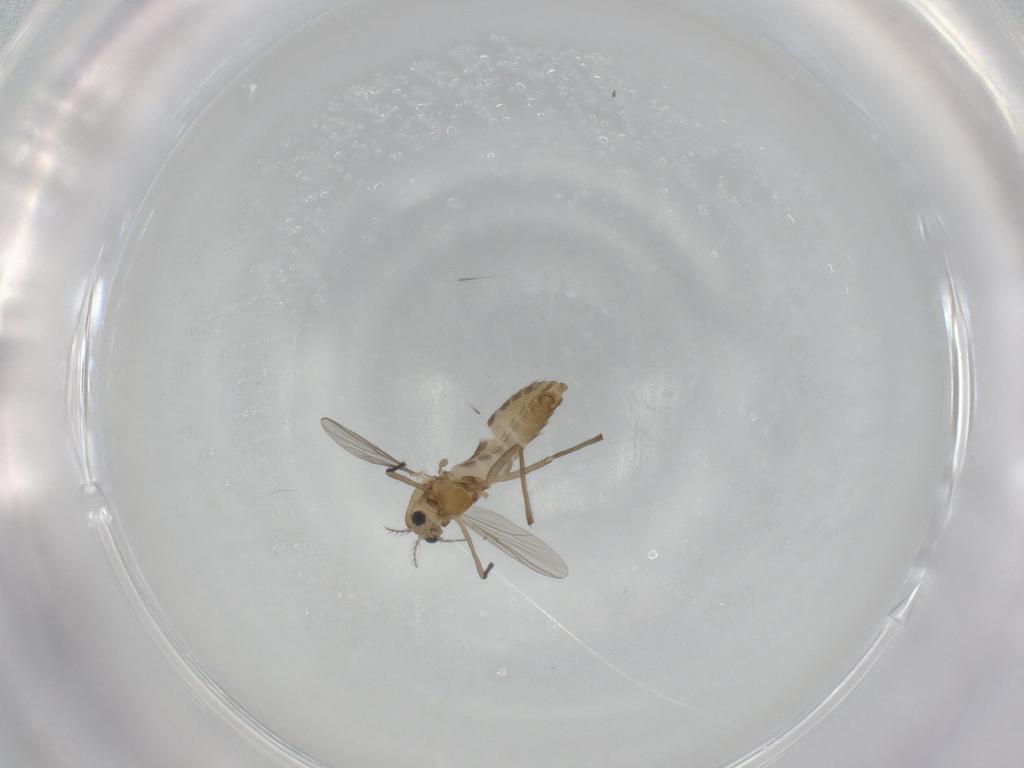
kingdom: Animalia
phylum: Arthropoda
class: Insecta
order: Diptera
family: Chironomidae
